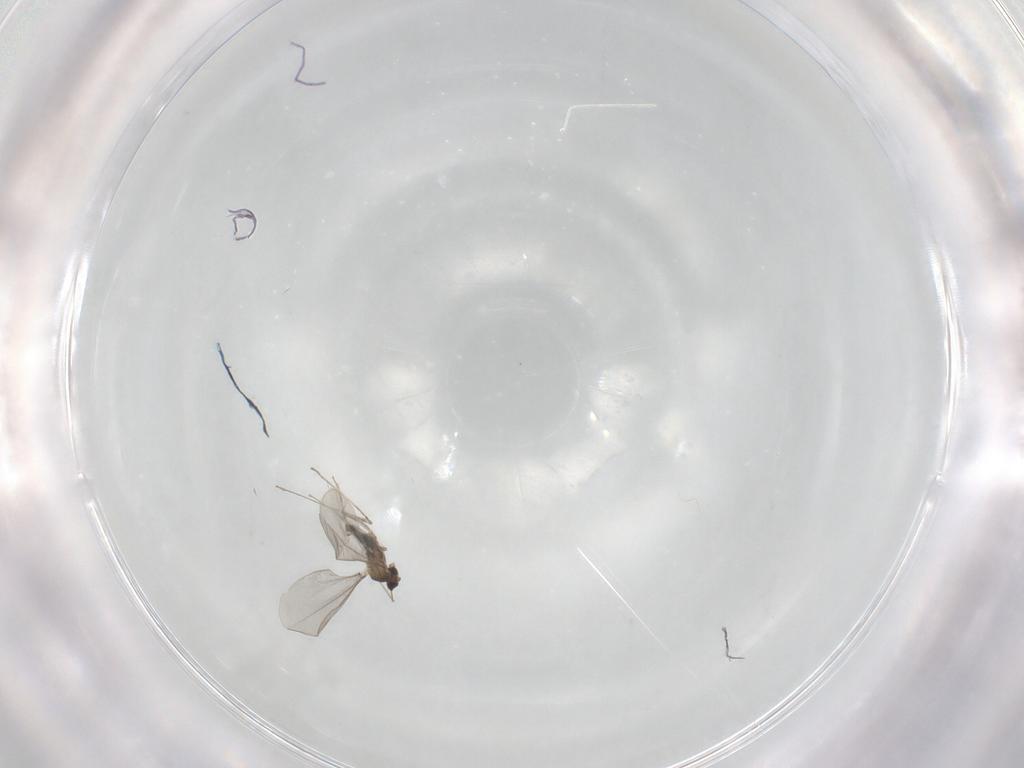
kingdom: Animalia
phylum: Arthropoda
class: Insecta
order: Diptera
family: Cecidomyiidae
